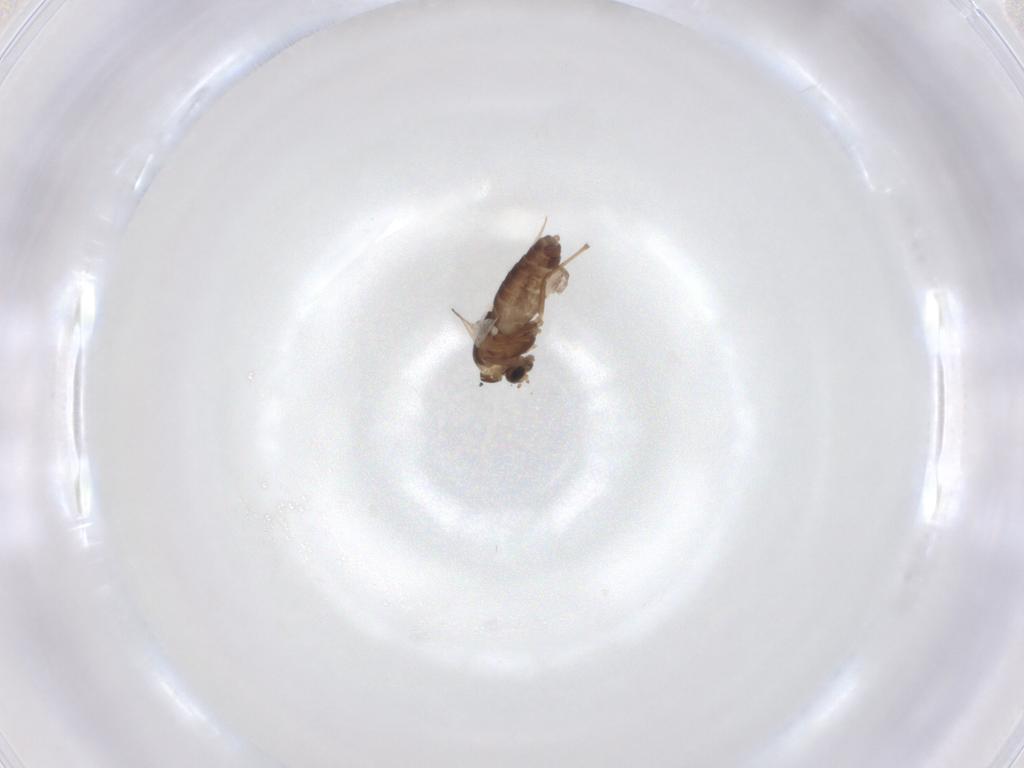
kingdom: Animalia
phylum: Arthropoda
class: Insecta
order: Diptera
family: Chironomidae
